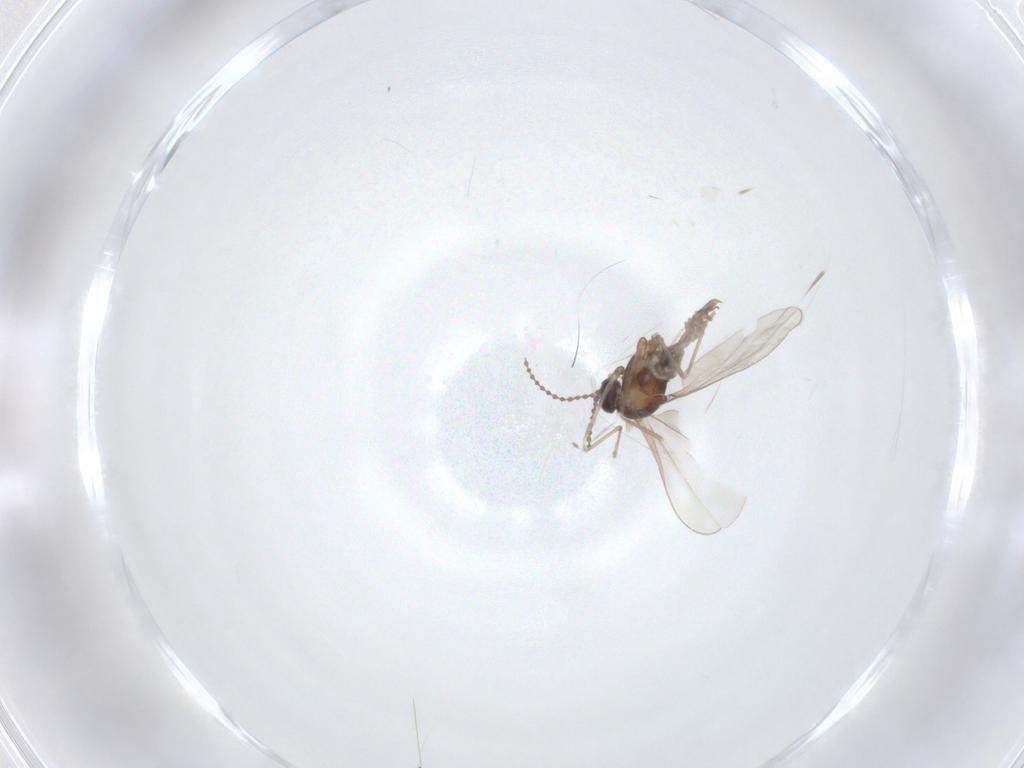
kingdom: Animalia
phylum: Arthropoda
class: Insecta
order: Diptera
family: Cecidomyiidae
